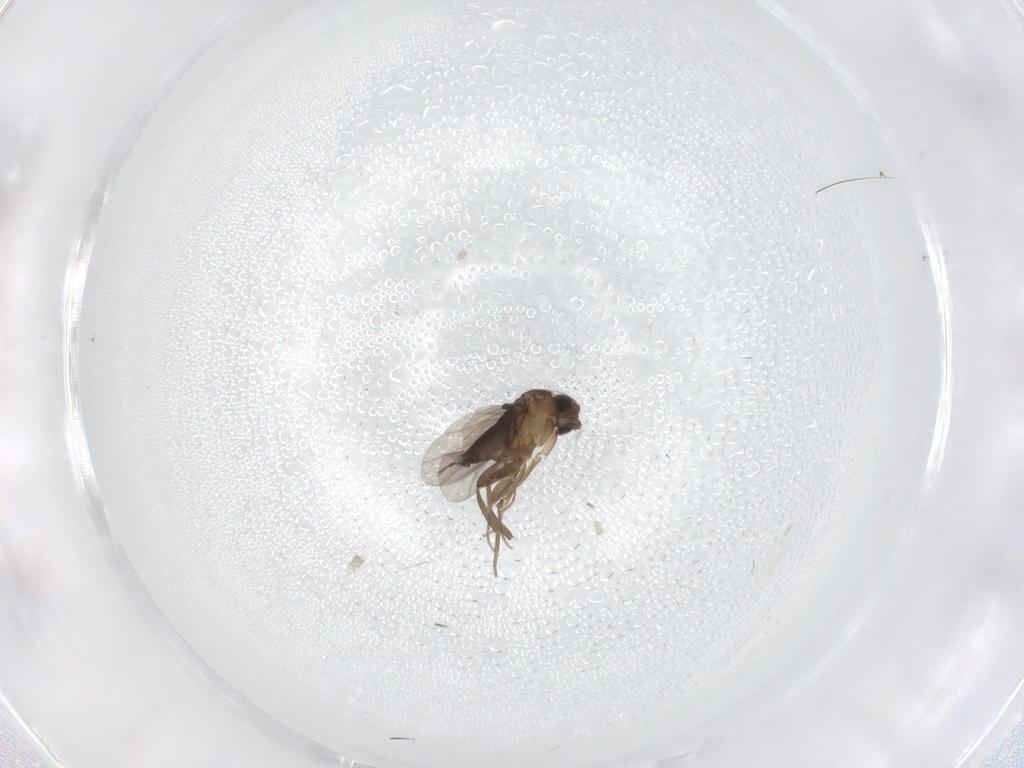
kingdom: Animalia
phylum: Arthropoda
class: Insecta
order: Diptera
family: Phoridae
